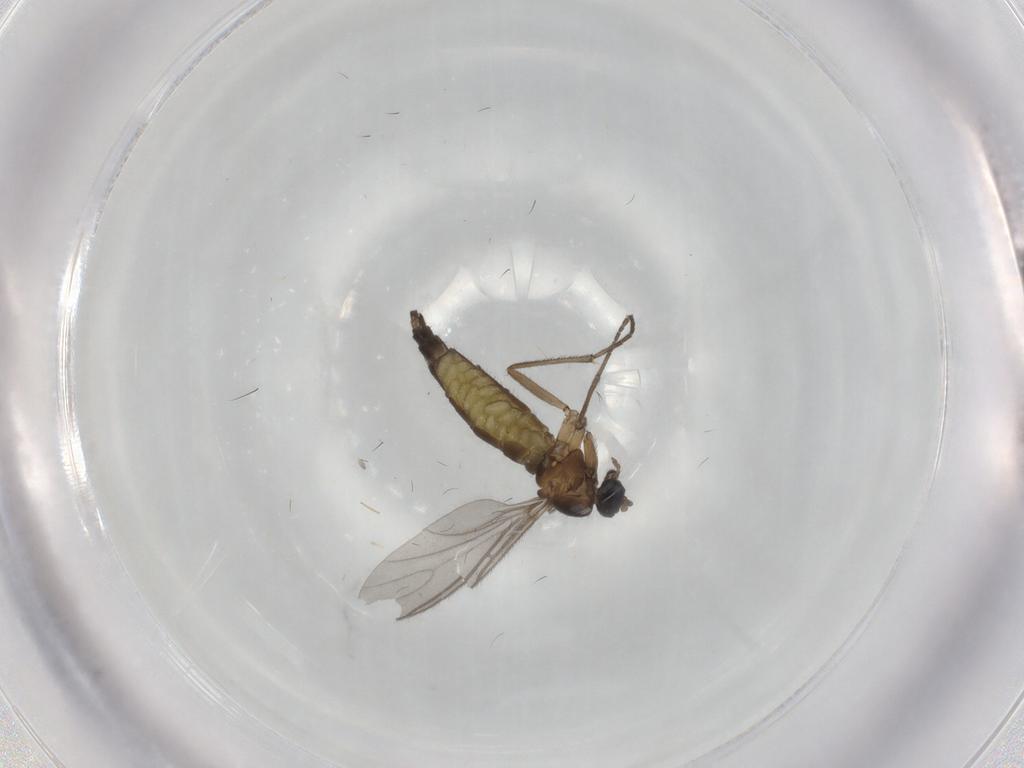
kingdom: Animalia
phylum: Arthropoda
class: Insecta
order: Diptera
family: Sciaridae
